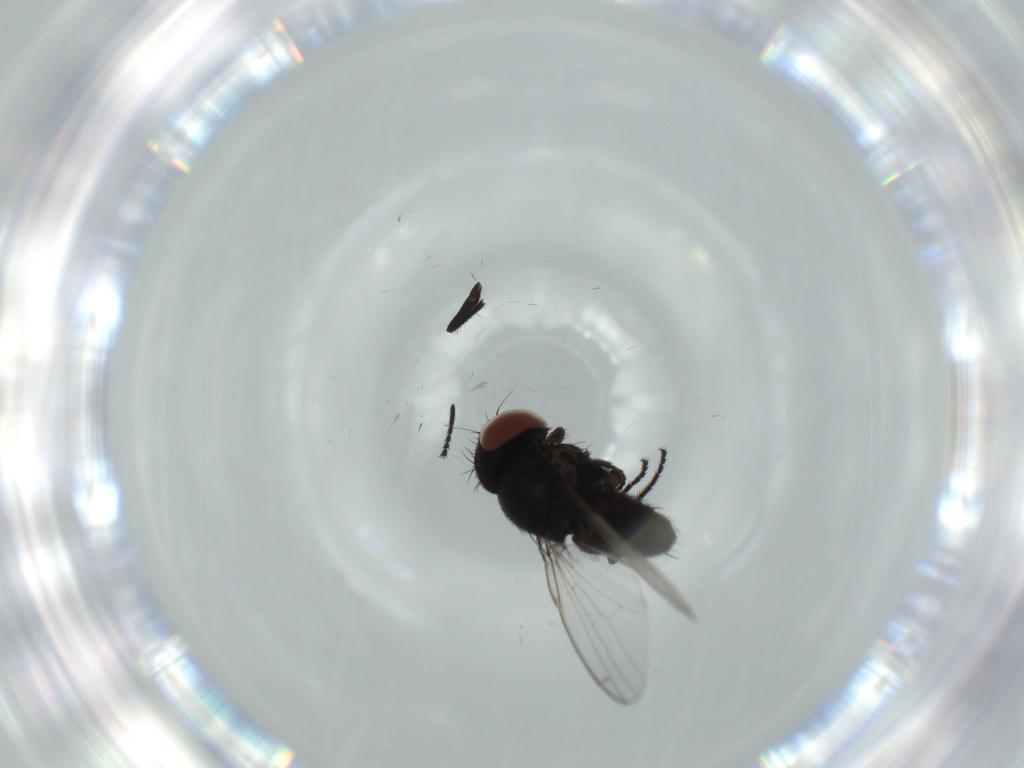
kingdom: Animalia
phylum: Arthropoda
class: Insecta
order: Diptera
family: Milichiidae
